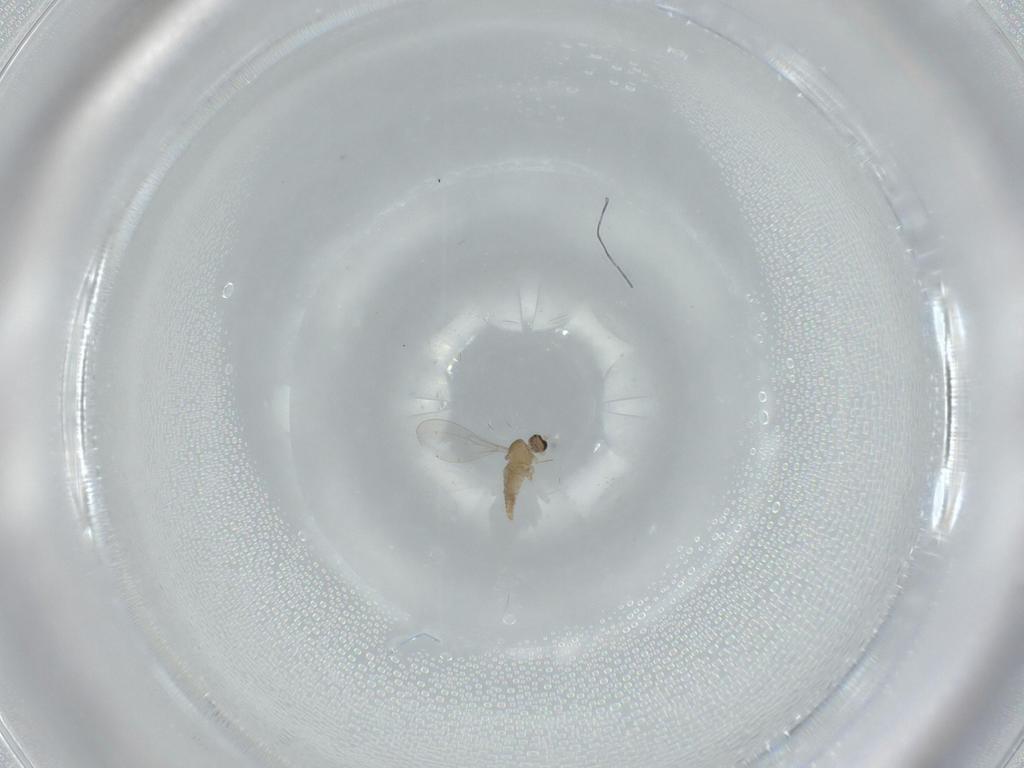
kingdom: Animalia
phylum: Arthropoda
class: Insecta
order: Diptera
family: Cecidomyiidae
